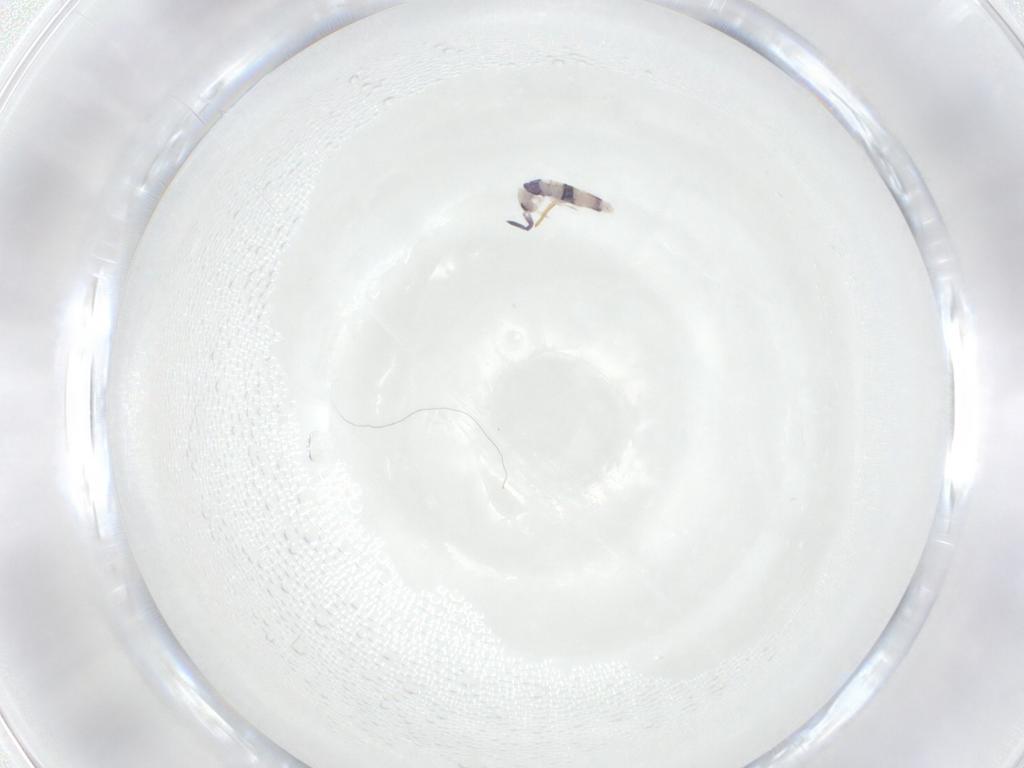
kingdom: Animalia
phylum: Arthropoda
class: Collembola
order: Entomobryomorpha
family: Entomobryidae
